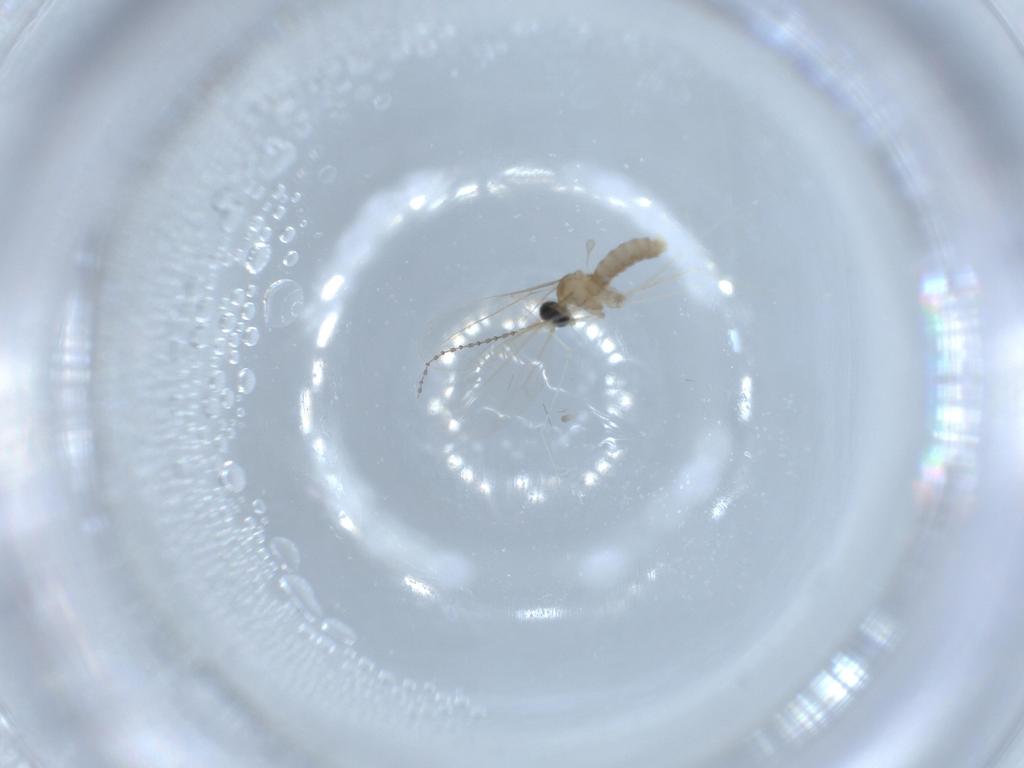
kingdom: Animalia
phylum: Arthropoda
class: Insecta
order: Diptera
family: Cecidomyiidae
